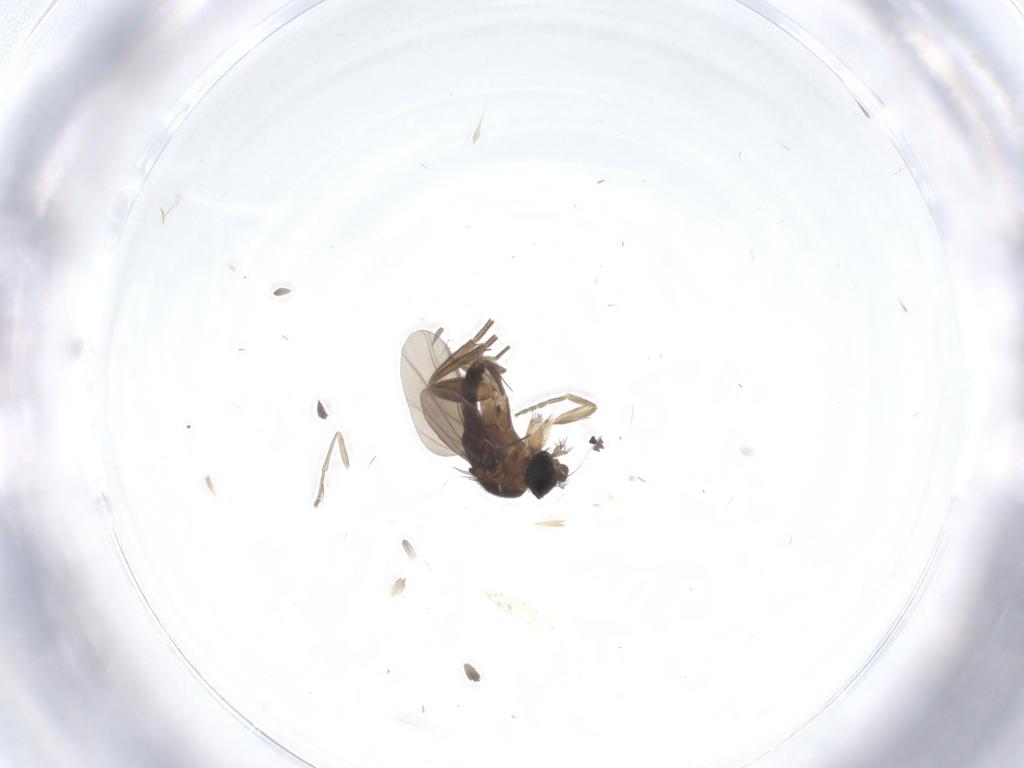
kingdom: Animalia
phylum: Arthropoda
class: Insecta
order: Diptera
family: Phoridae
